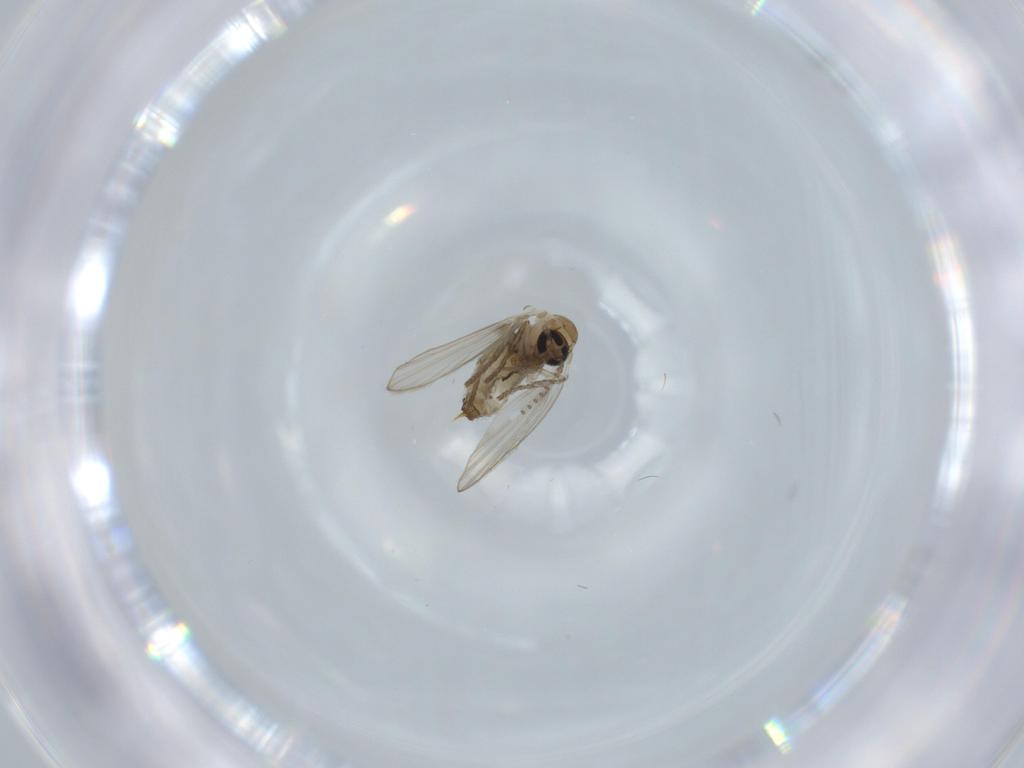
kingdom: Animalia
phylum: Arthropoda
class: Insecta
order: Diptera
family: Psychodidae
